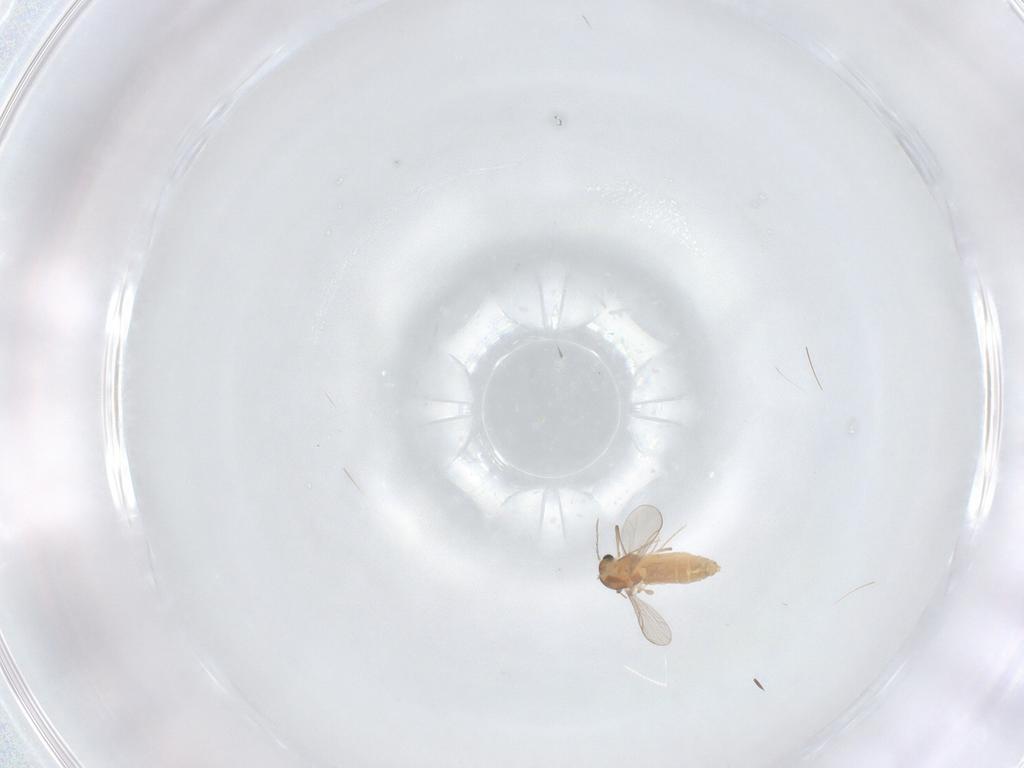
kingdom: Animalia
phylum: Arthropoda
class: Insecta
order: Diptera
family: Chironomidae
